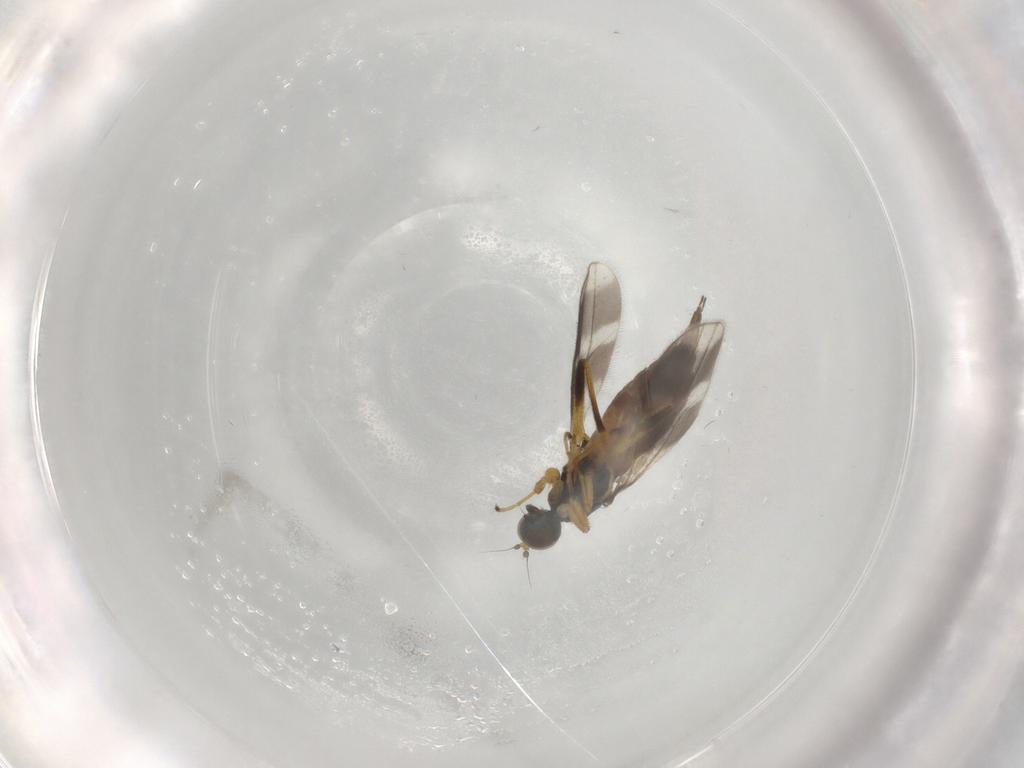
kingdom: Animalia
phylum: Arthropoda
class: Insecta
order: Diptera
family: Hybotidae
